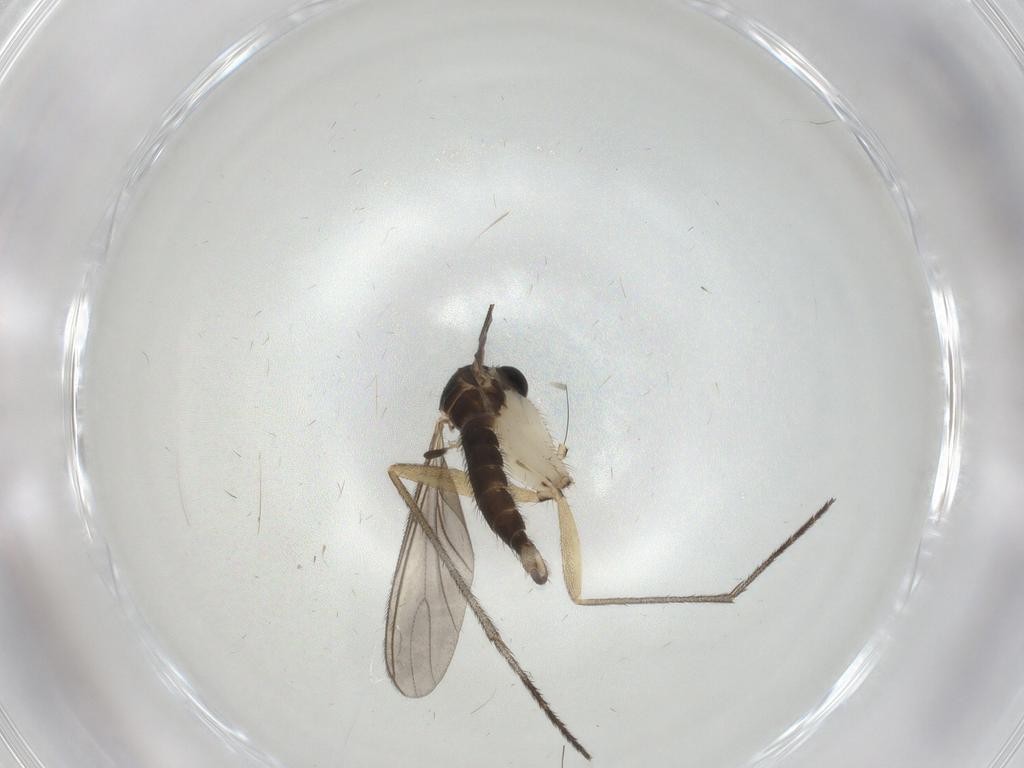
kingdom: Animalia
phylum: Arthropoda
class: Insecta
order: Diptera
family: Sciaridae
